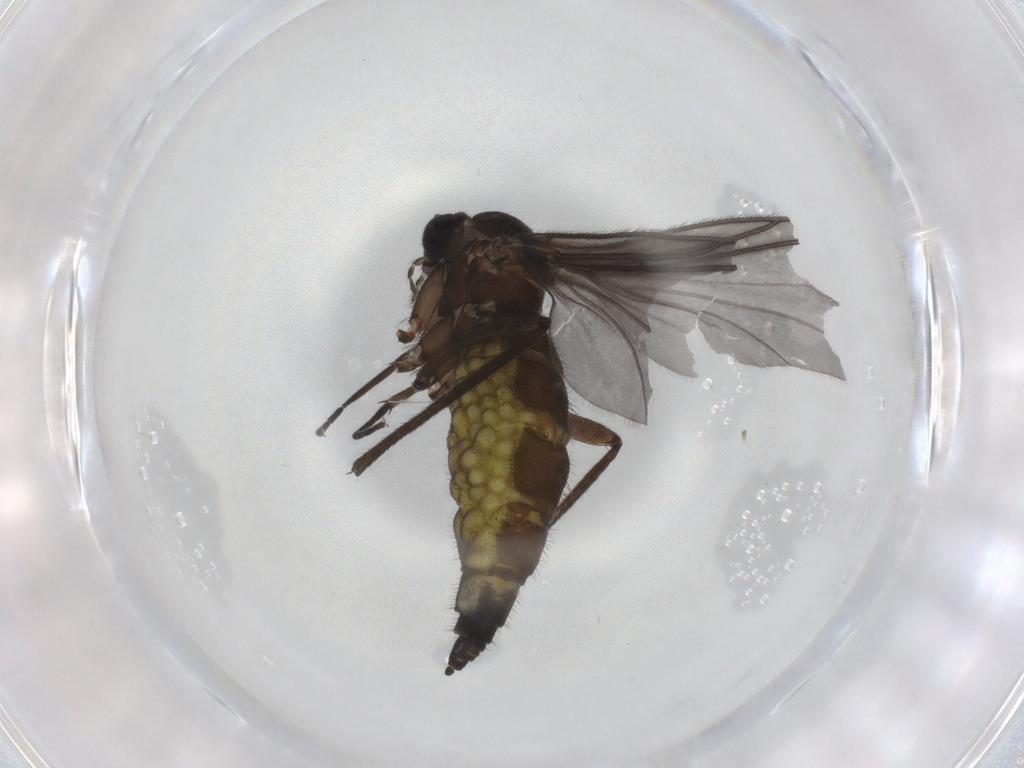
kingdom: Animalia
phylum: Arthropoda
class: Insecta
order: Diptera
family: Sciaridae
